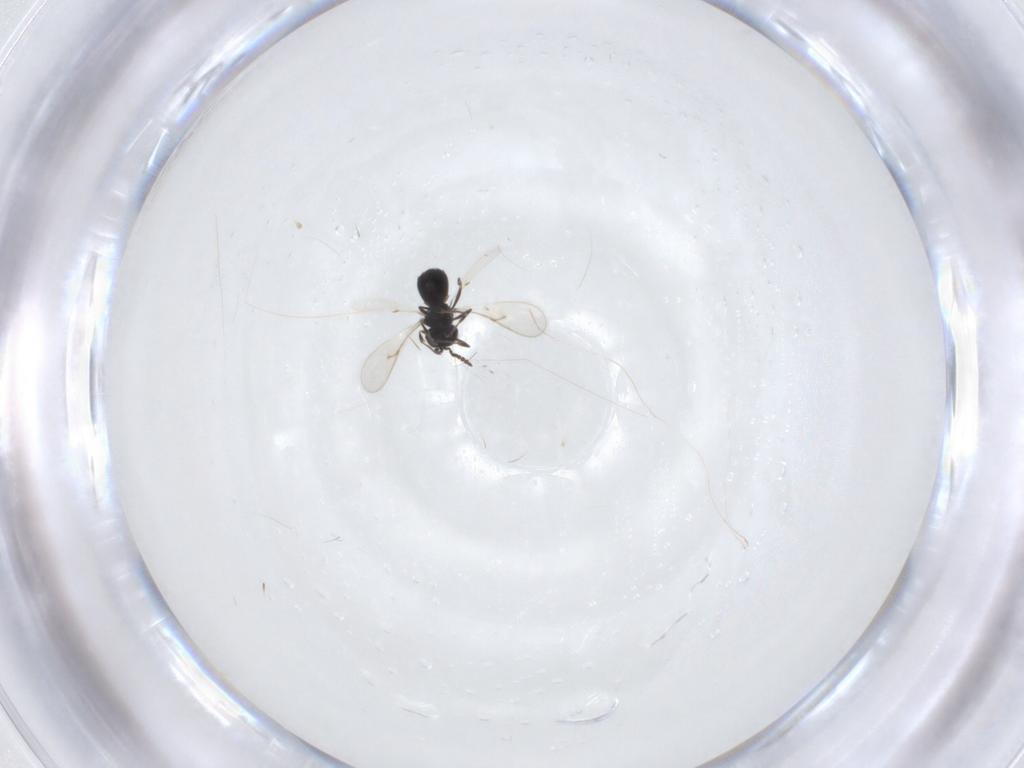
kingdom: Animalia
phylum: Arthropoda
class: Insecta
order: Hymenoptera
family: Scelionidae
